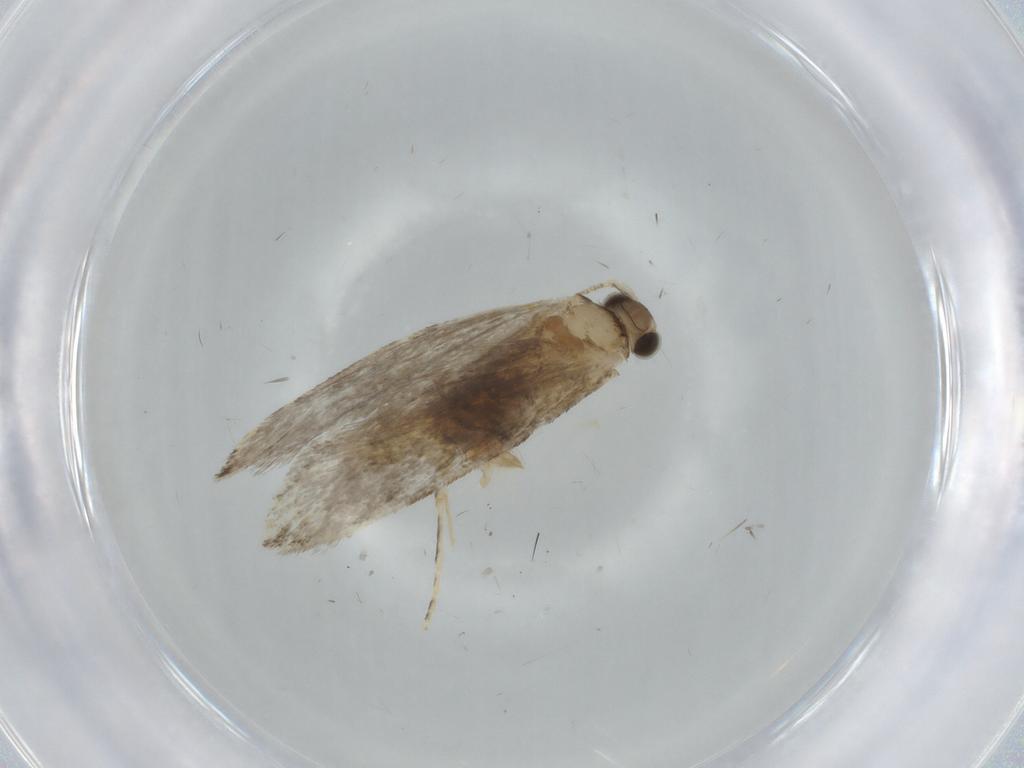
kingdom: Animalia
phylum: Arthropoda
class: Insecta
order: Lepidoptera
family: Tineidae
